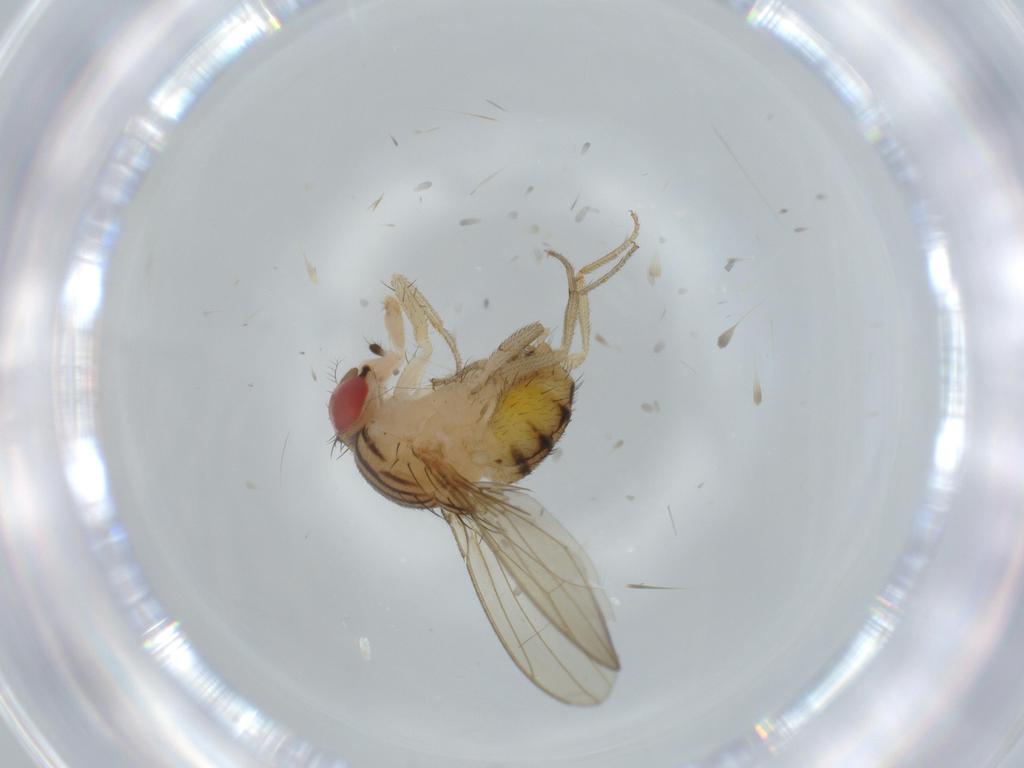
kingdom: Animalia
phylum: Arthropoda
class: Insecta
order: Diptera
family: Drosophilidae
